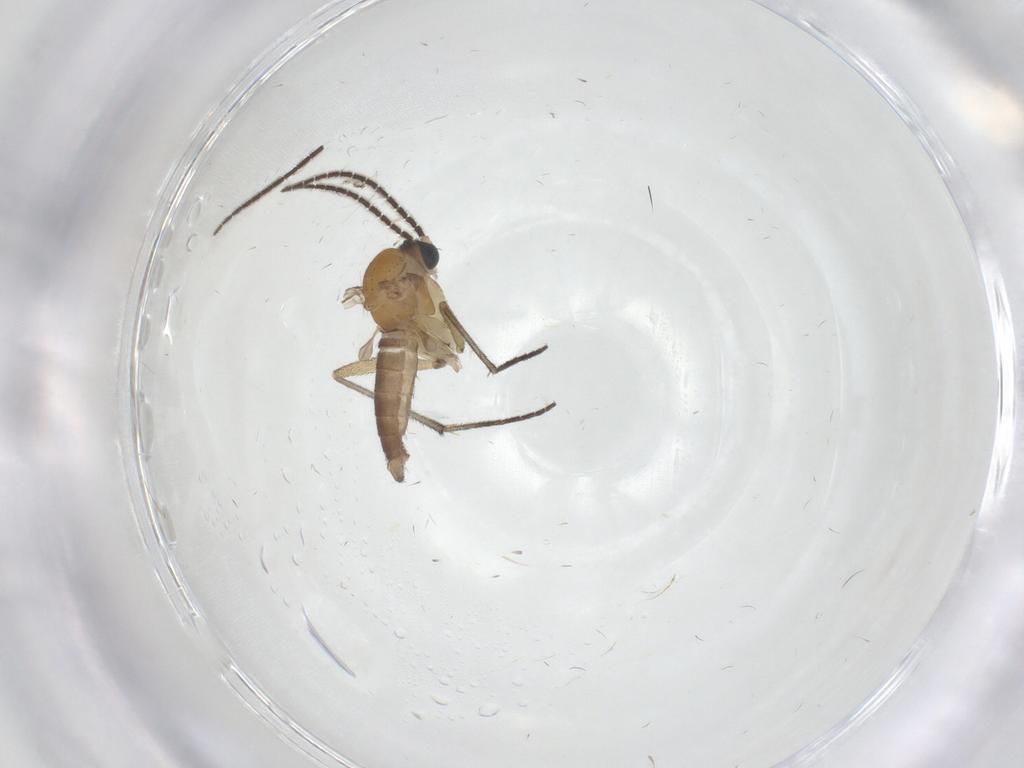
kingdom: Animalia
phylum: Arthropoda
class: Insecta
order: Diptera
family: Sciaridae
